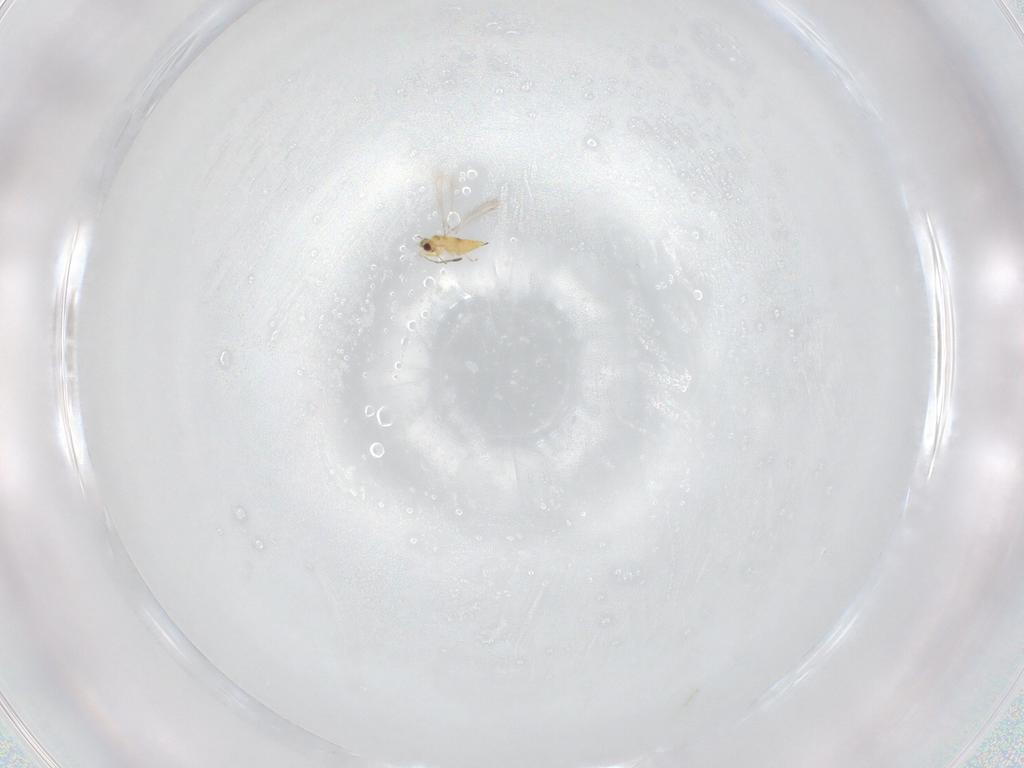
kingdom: Animalia
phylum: Arthropoda
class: Insecta
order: Hymenoptera
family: Mymaridae
